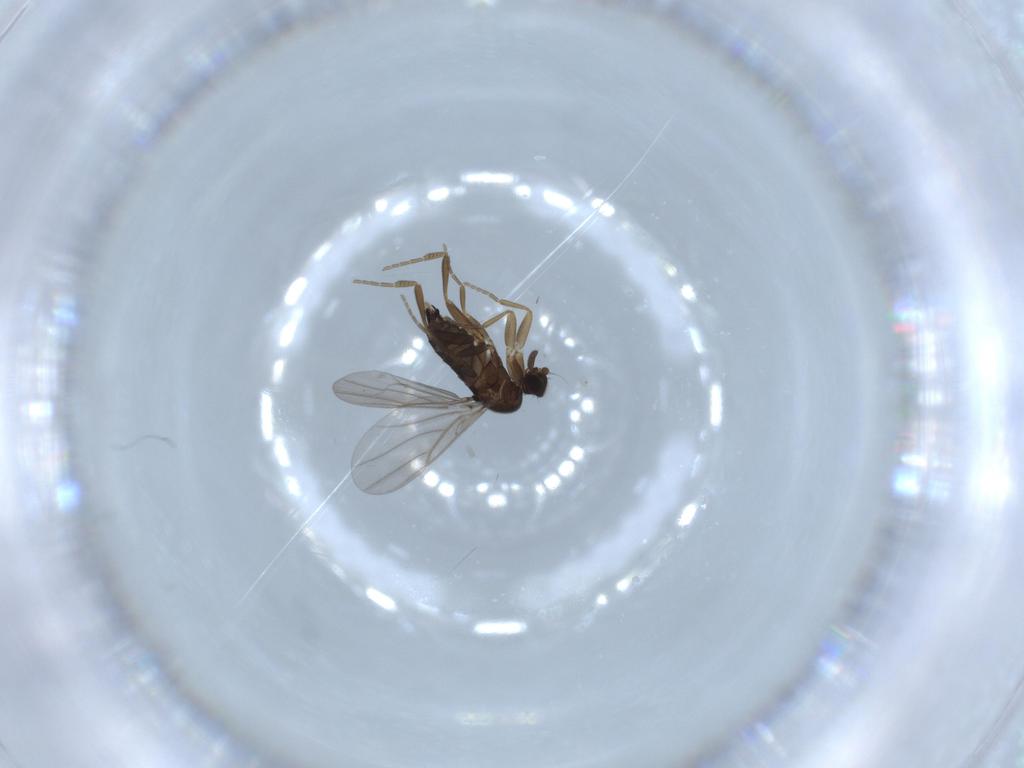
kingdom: Animalia
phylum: Arthropoda
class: Insecta
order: Diptera
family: Phoridae
